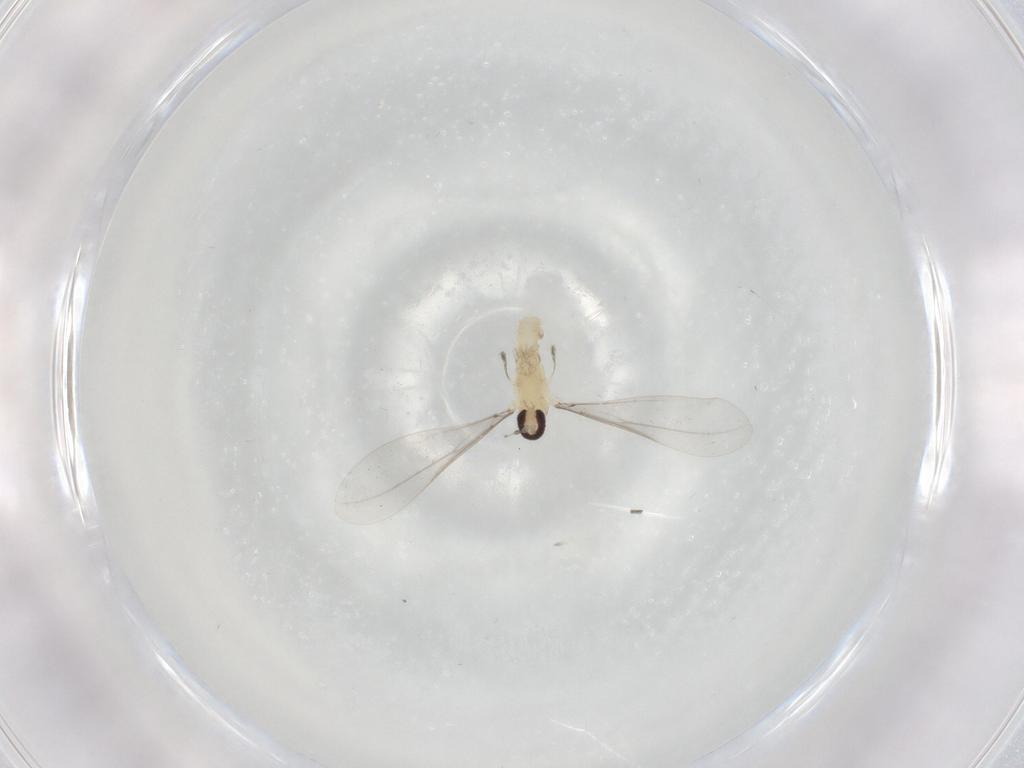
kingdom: Animalia
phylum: Arthropoda
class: Insecta
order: Diptera
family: Cecidomyiidae
